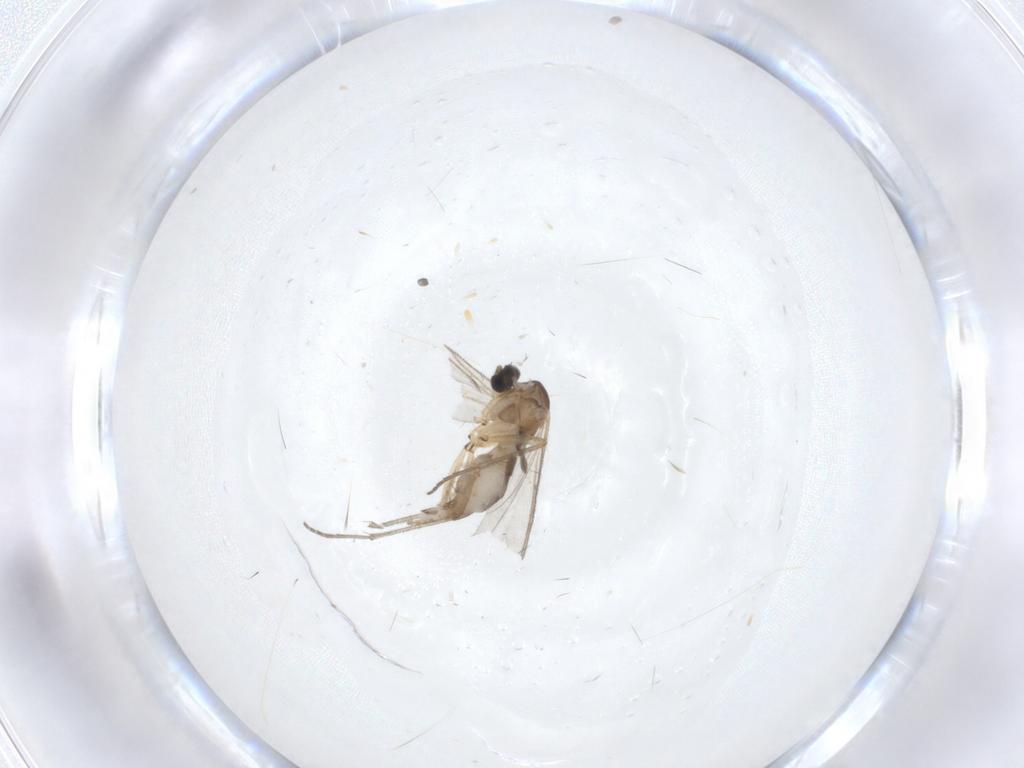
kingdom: Animalia
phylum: Arthropoda
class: Insecta
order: Diptera
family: Sciaridae
